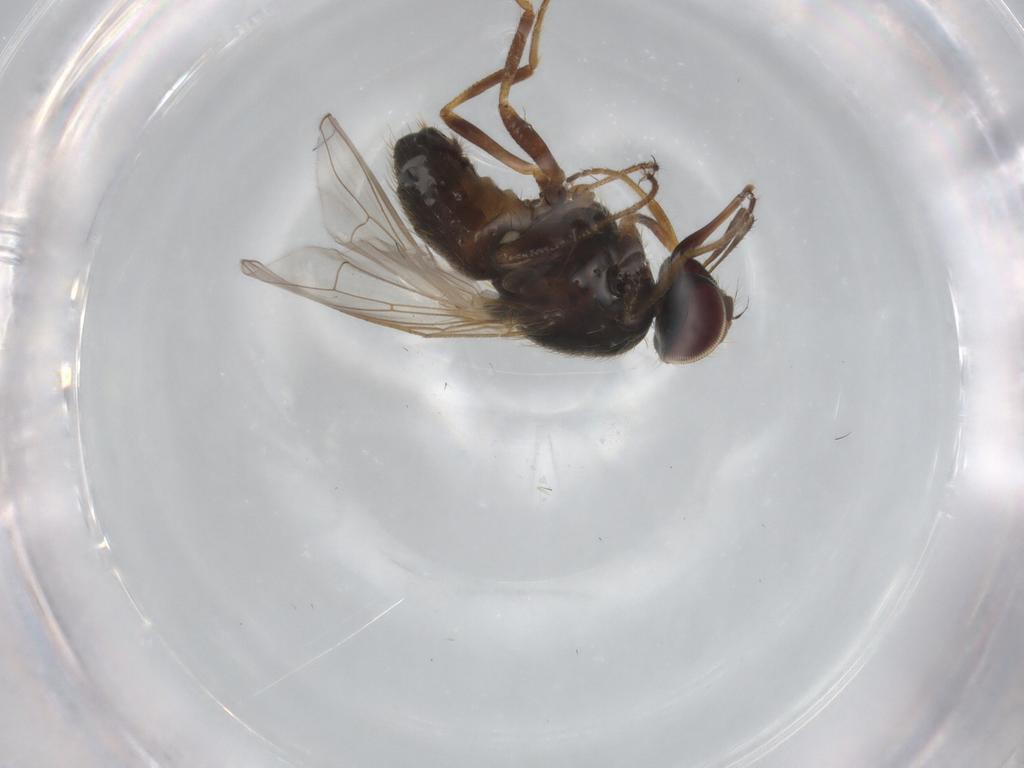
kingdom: Animalia
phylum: Arthropoda
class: Insecta
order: Diptera
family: Muscidae
